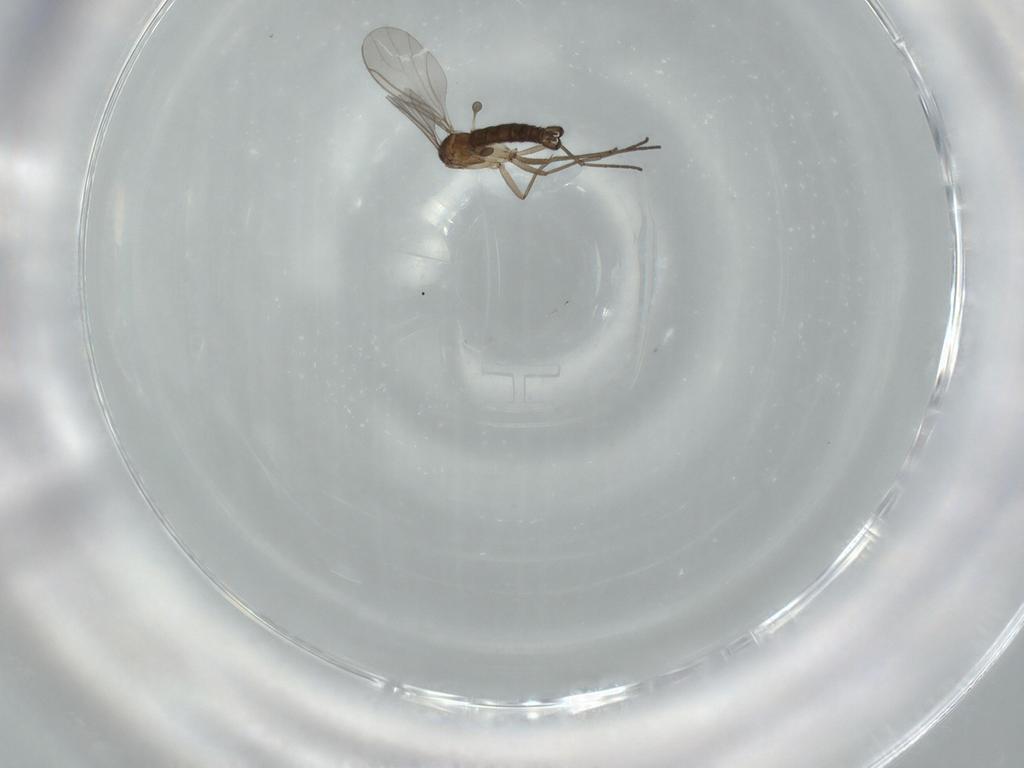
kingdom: Animalia
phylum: Arthropoda
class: Insecta
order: Diptera
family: Sciaridae
